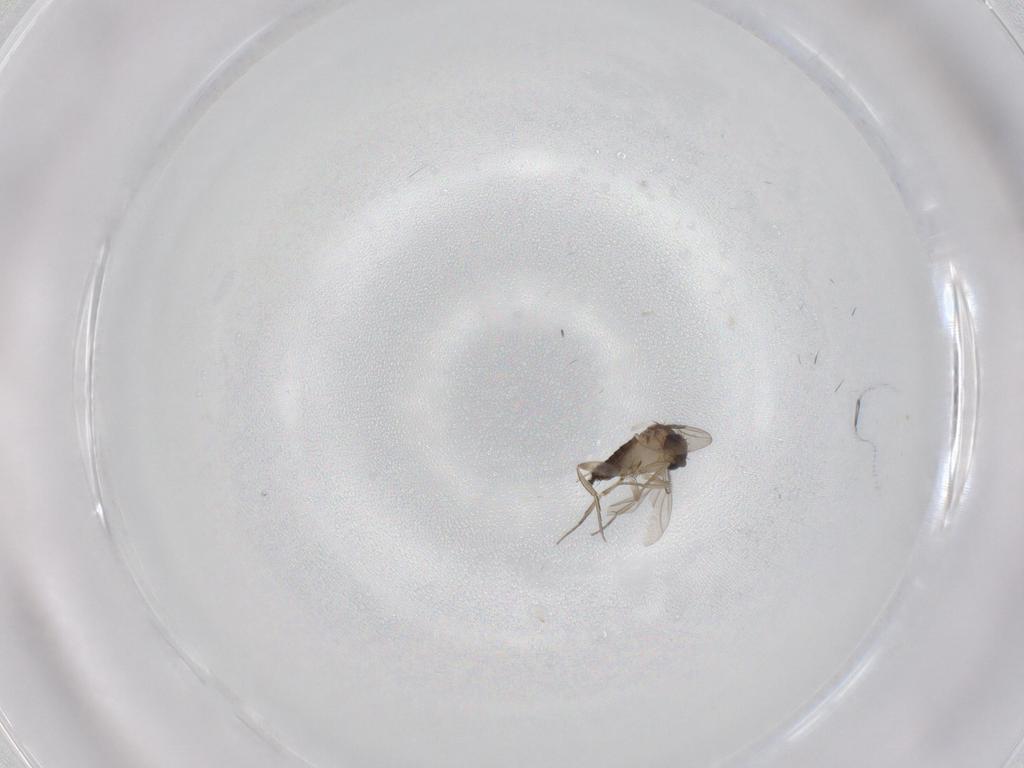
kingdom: Animalia
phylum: Arthropoda
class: Insecta
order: Diptera
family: Phoridae
